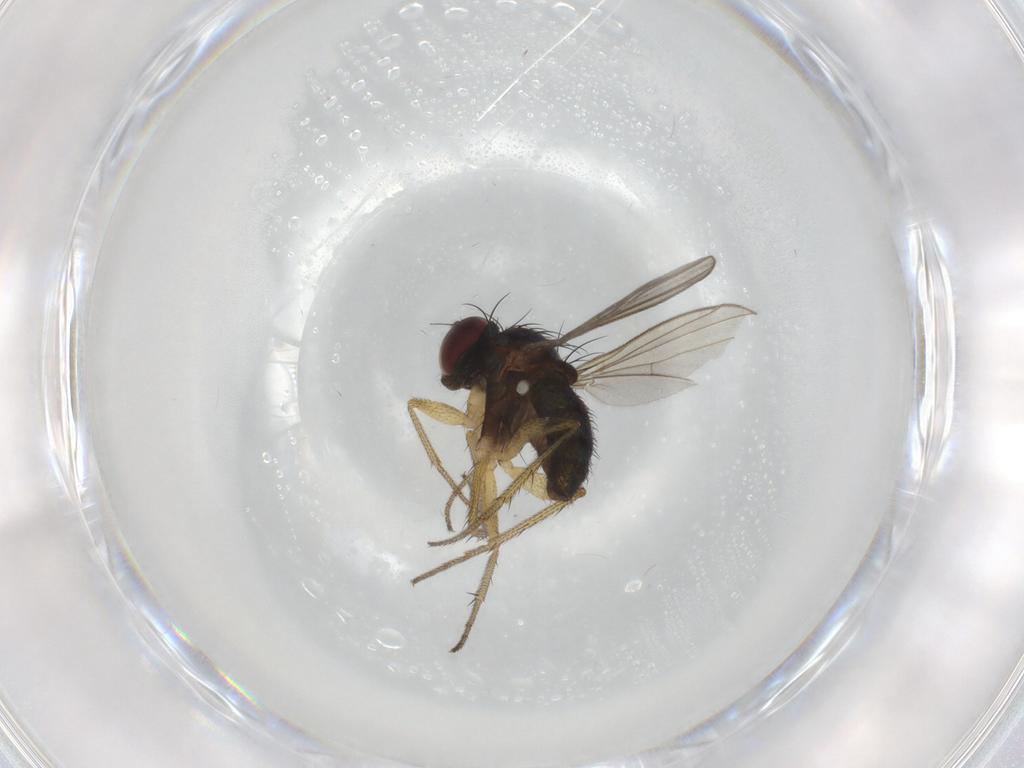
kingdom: Animalia
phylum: Arthropoda
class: Insecta
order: Diptera
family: Dolichopodidae
